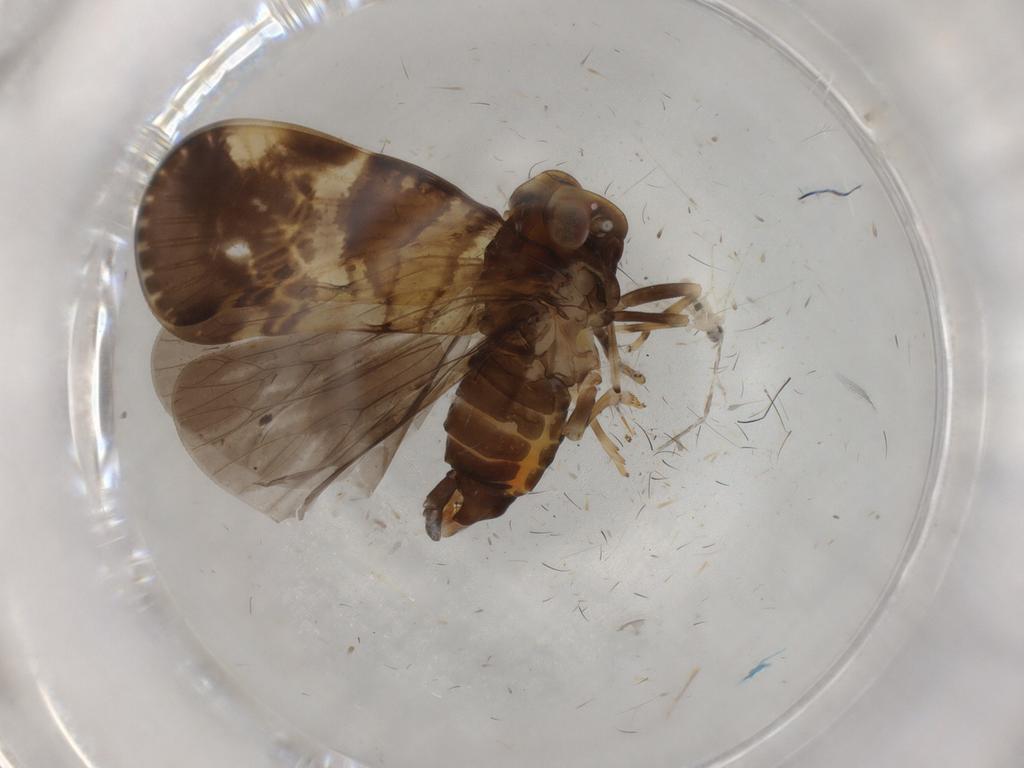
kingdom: Animalia
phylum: Arthropoda
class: Insecta
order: Hemiptera
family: Cixiidae
